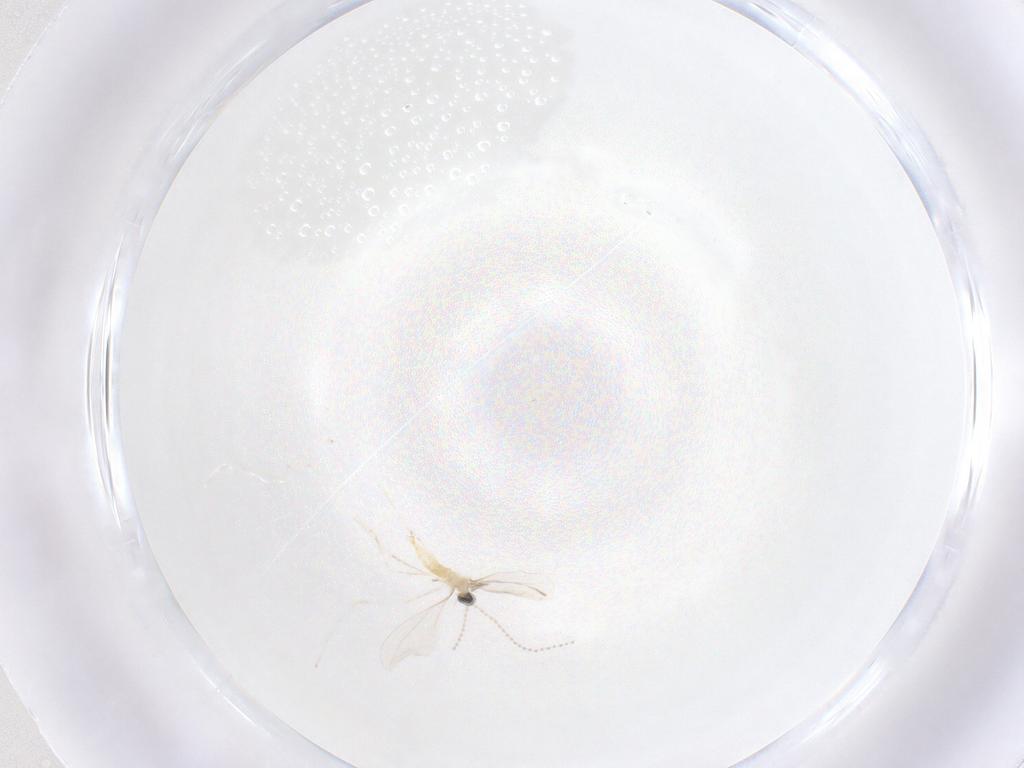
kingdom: Animalia
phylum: Arthropoda
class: Insecta
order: Diptera
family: Cecidomyiidae
